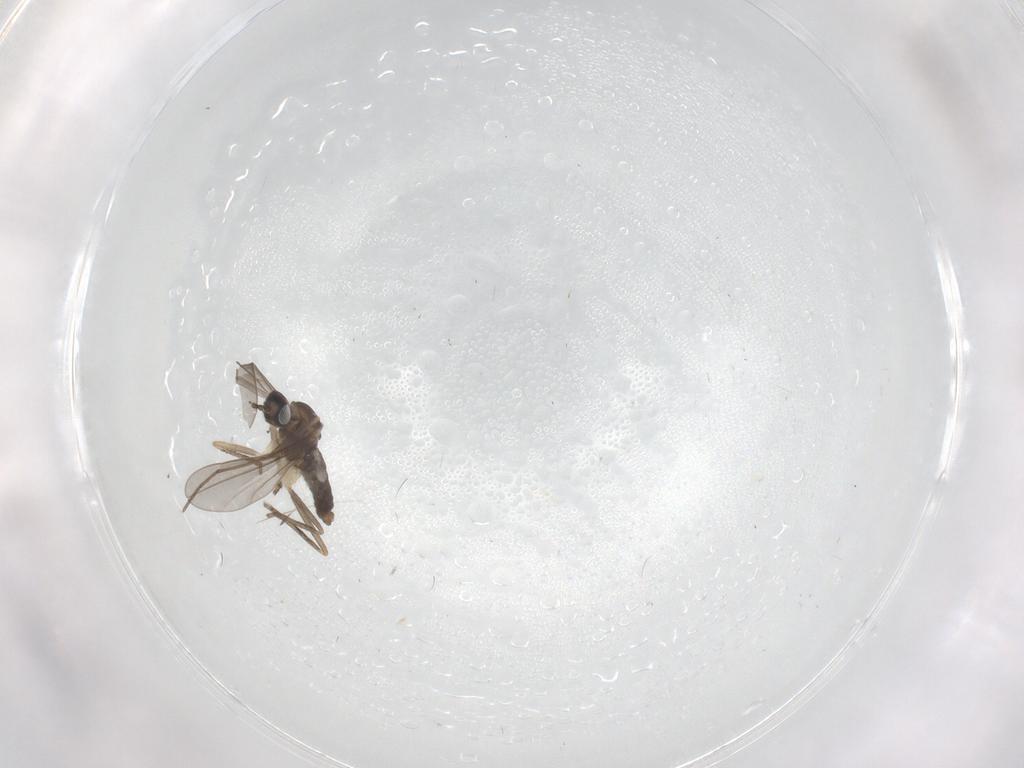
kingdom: Animalia
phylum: Arthropoda
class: Insecta
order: Diptera
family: Cecidomyiidae
